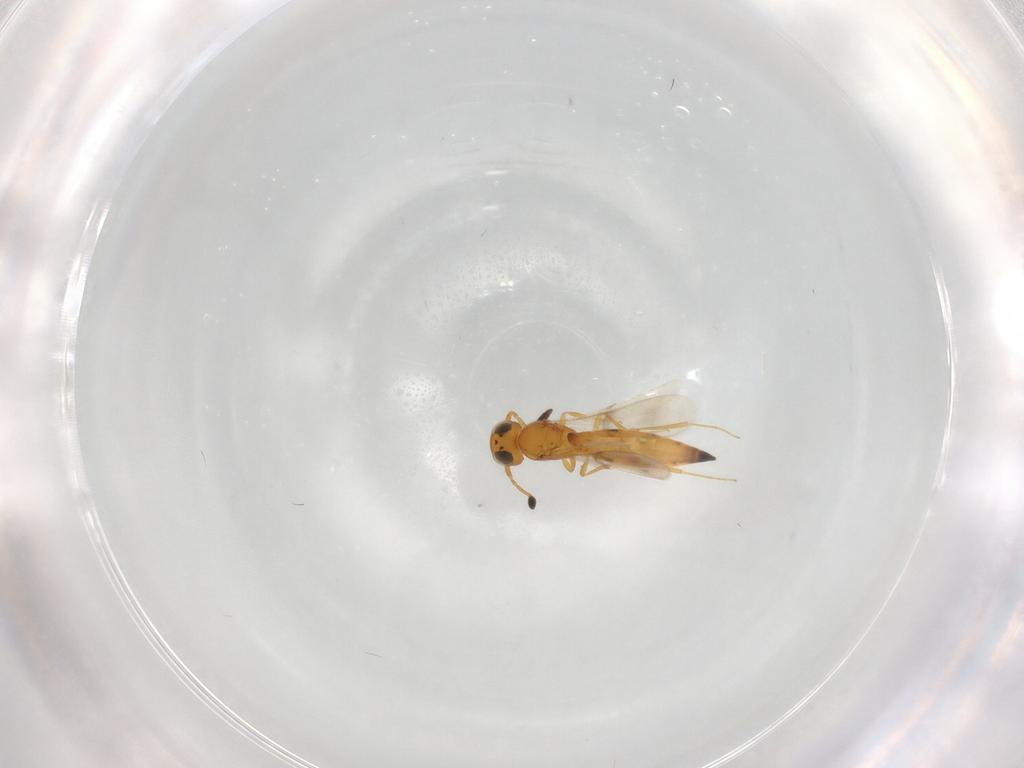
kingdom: Animalia
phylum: Arthropoda
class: Insecta
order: Hymenoptera
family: Scelionidae
